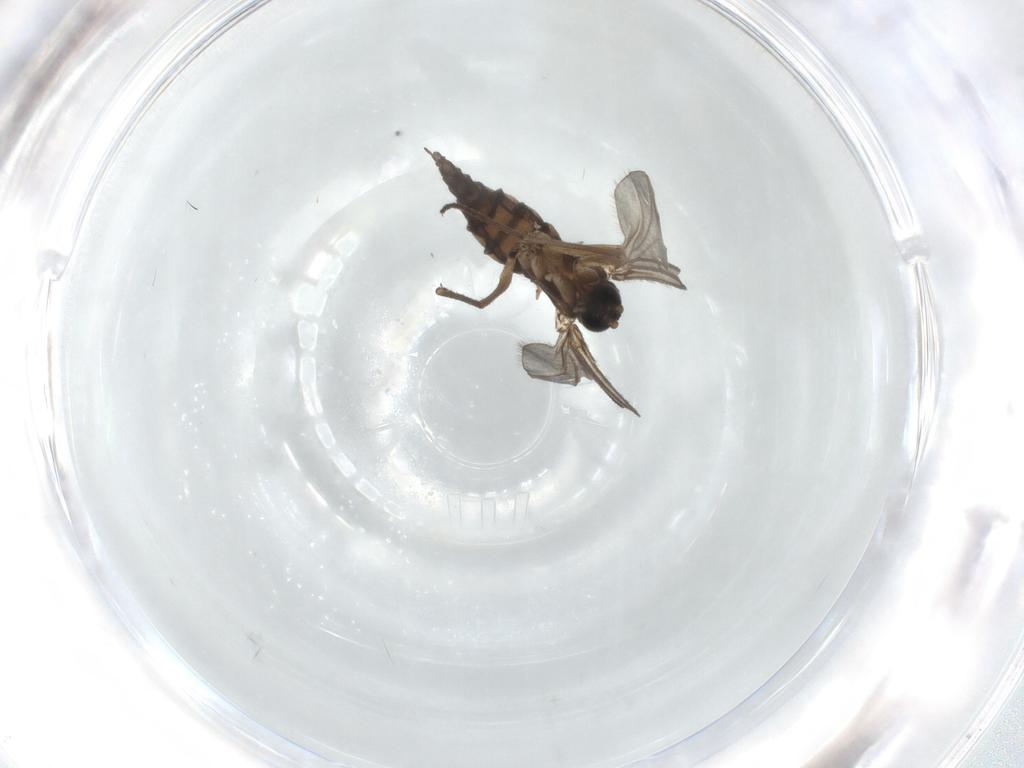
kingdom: Animalia
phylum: Arthropoda
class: Insecta
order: Diptera
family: Sciaridae
